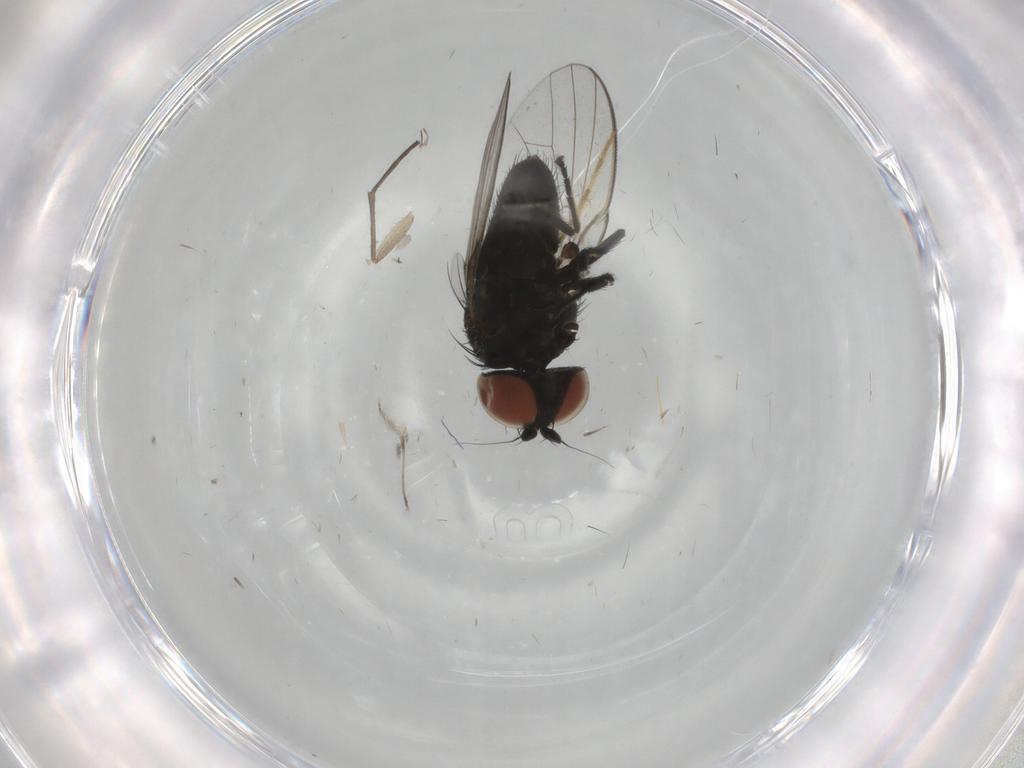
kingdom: Animalia
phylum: Arthropoda
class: Insecta
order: Diptera
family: Milichiidae
